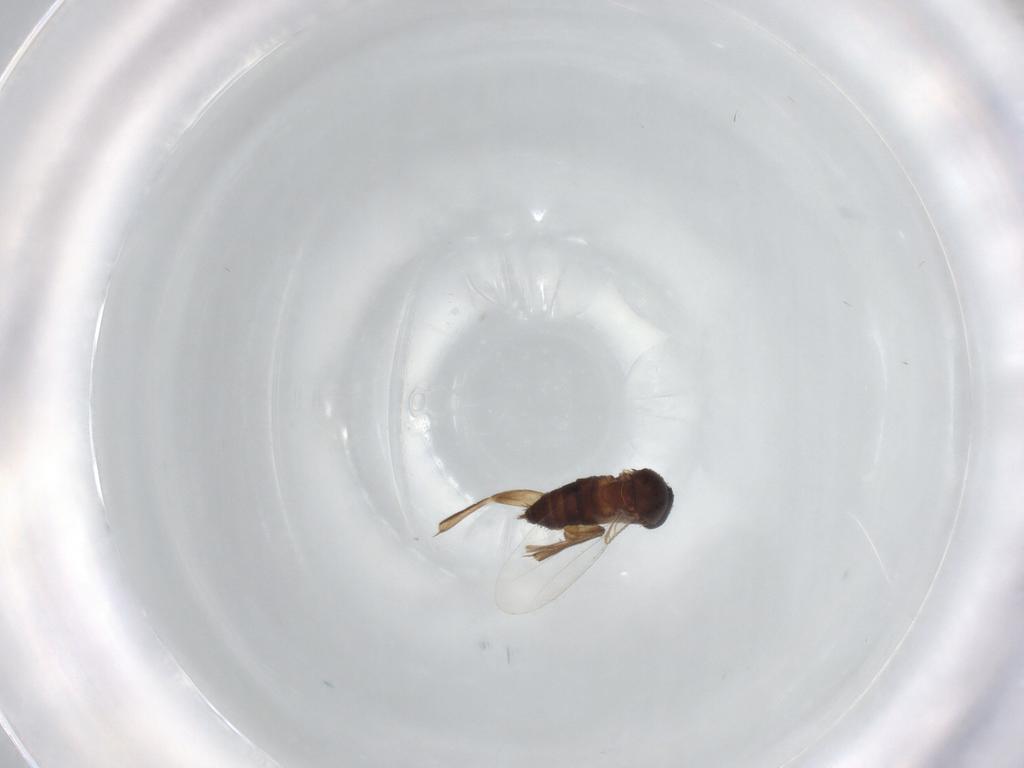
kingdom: Animalia
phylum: Arthropoda
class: Insecta
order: Diptera
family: Phoridae
